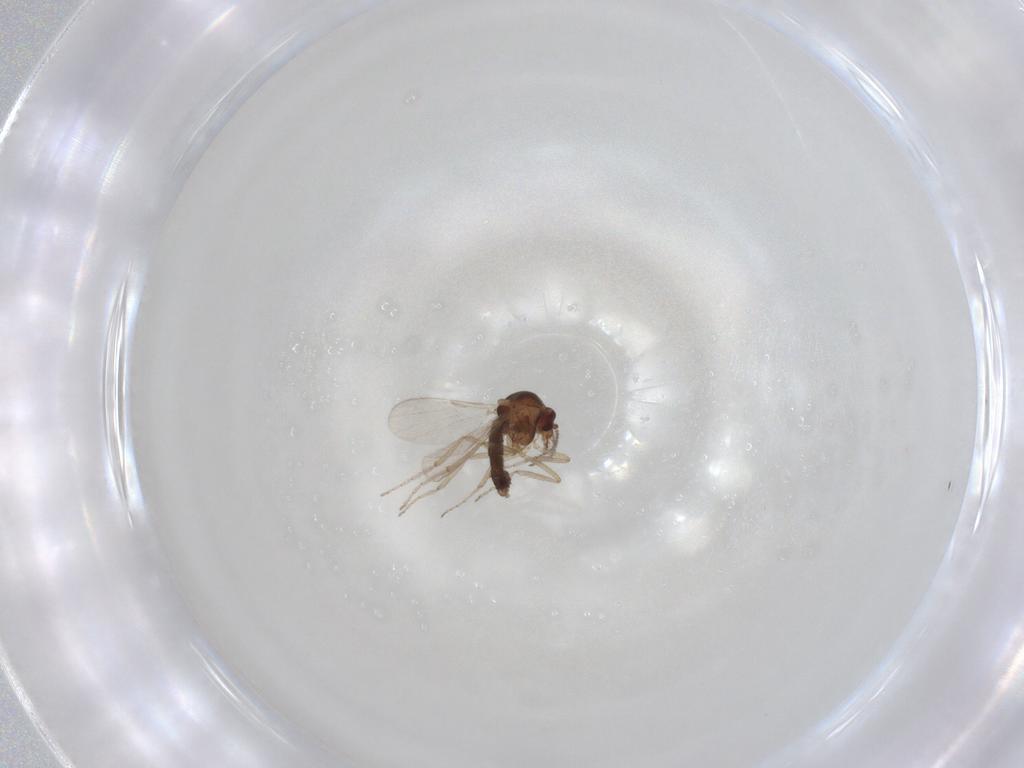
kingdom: Animalia
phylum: Arthropoda
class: Insecta
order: Diptera
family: Ceratopogonidae
